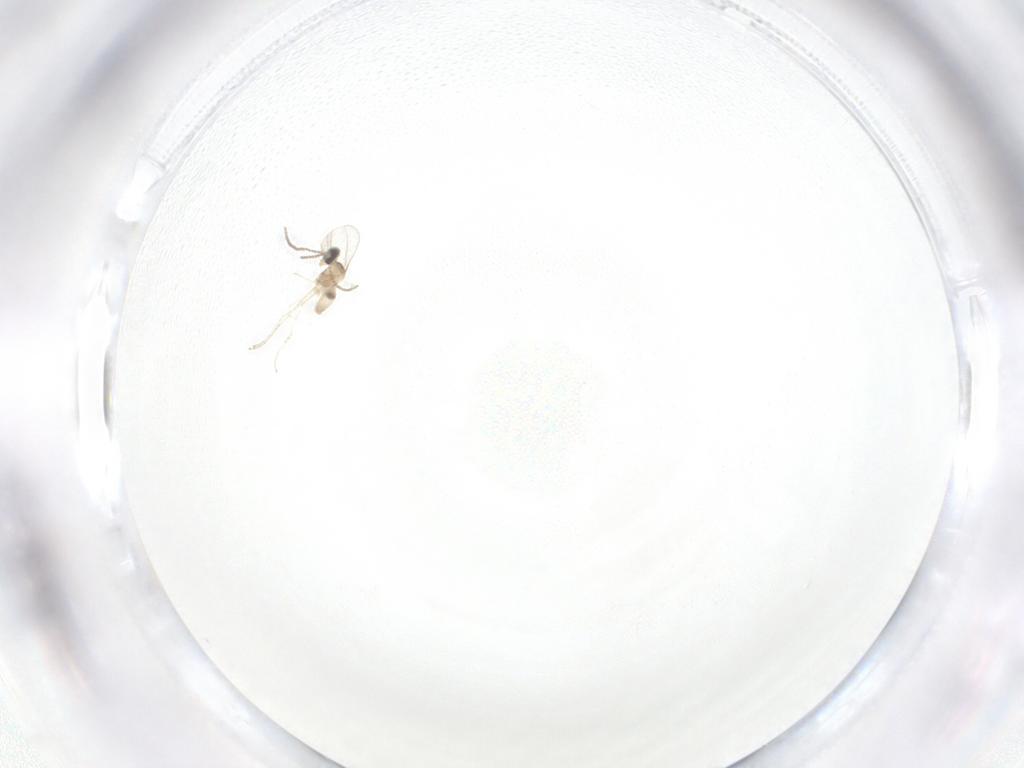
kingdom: Animalia
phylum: Arthropoda
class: Insecta
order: Diptera
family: Cecidomyiidae
